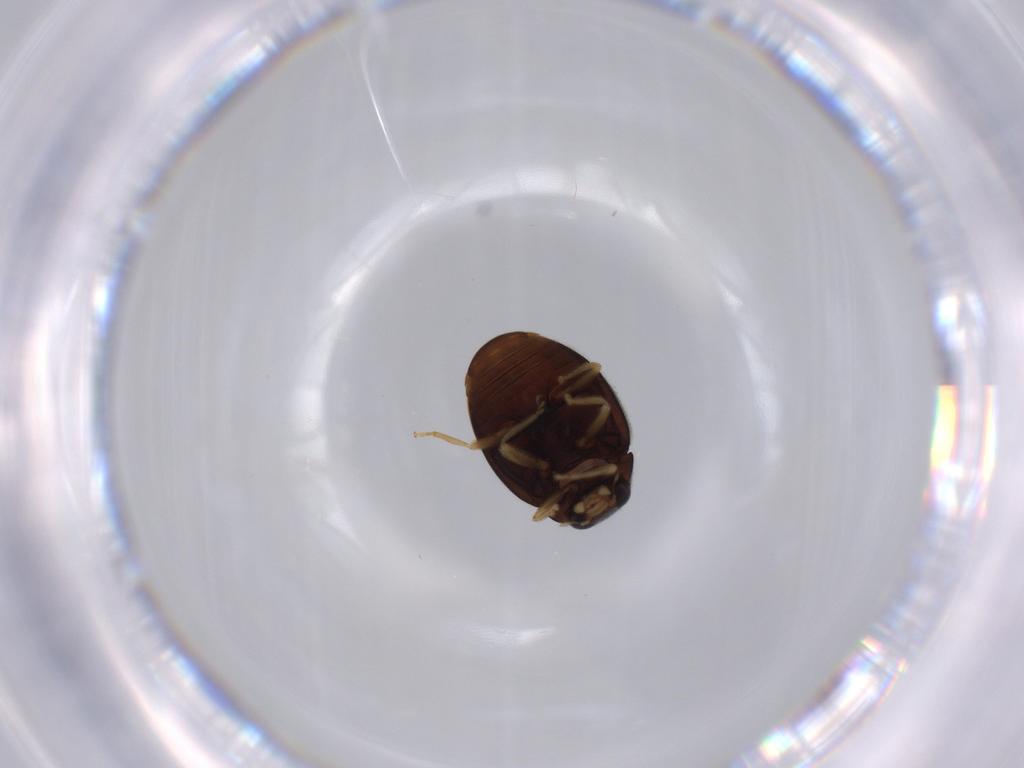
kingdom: Animalia
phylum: Arthropoda
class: Insecta
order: Coleoptera
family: Coccinellidae
